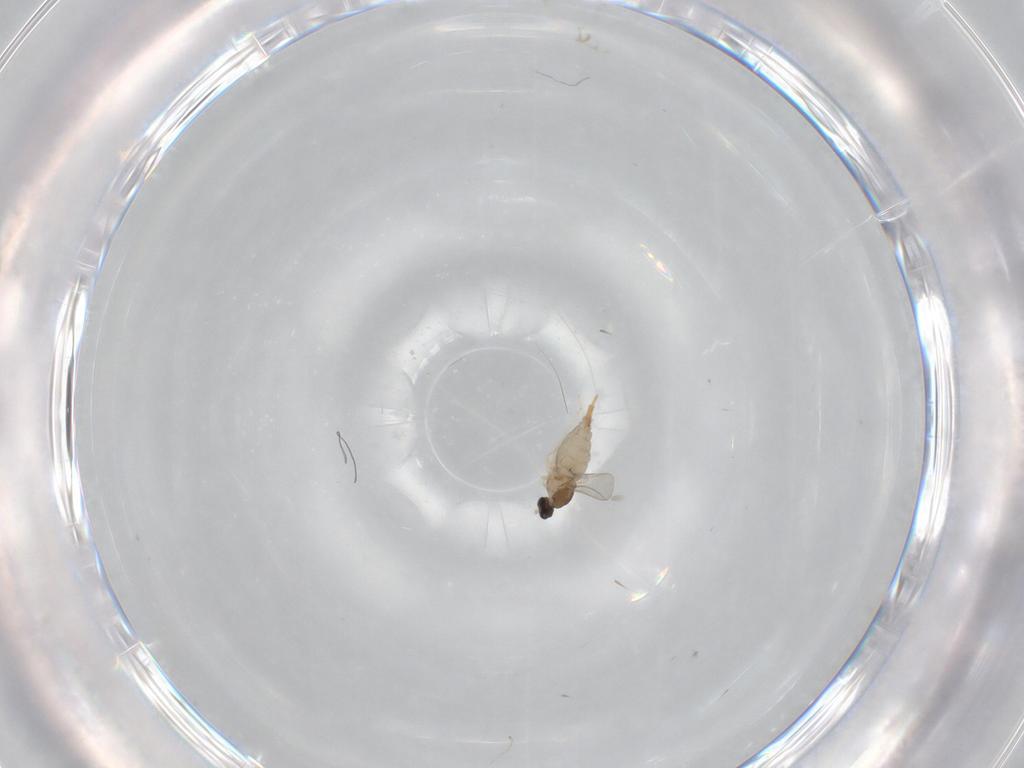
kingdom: Animalia
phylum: Arthropoda
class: Insecta
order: Diptera
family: Cecidomyiidae
